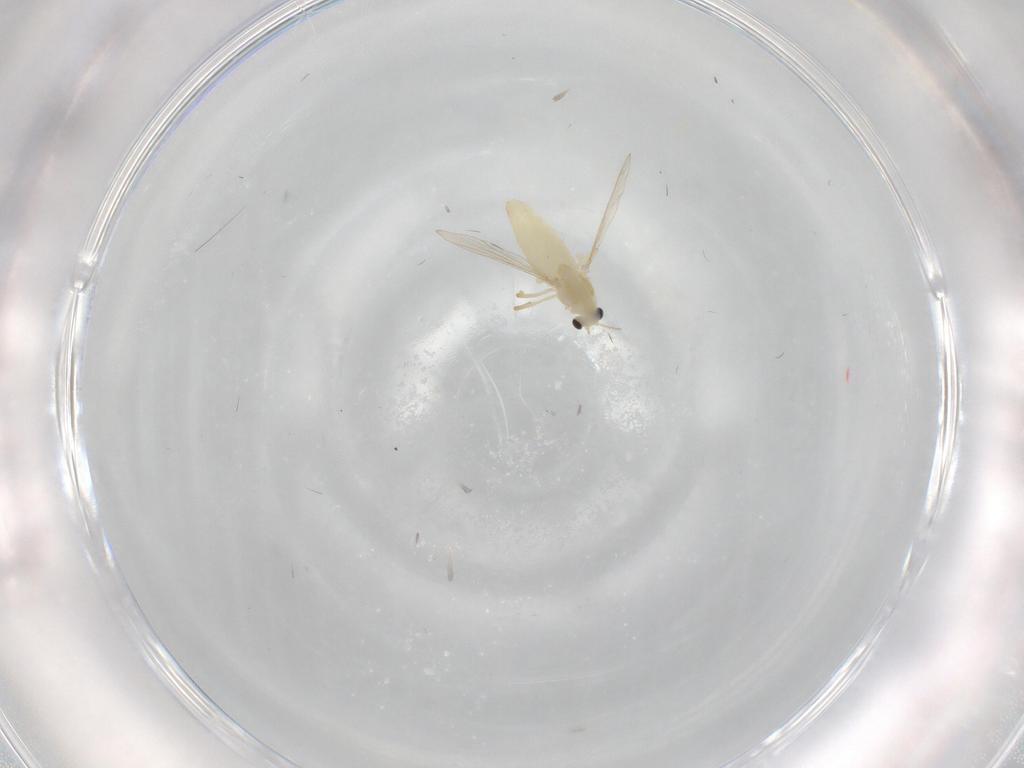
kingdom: Animalia
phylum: Arthropoda
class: Insecta
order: Diptera
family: Chironomidae
